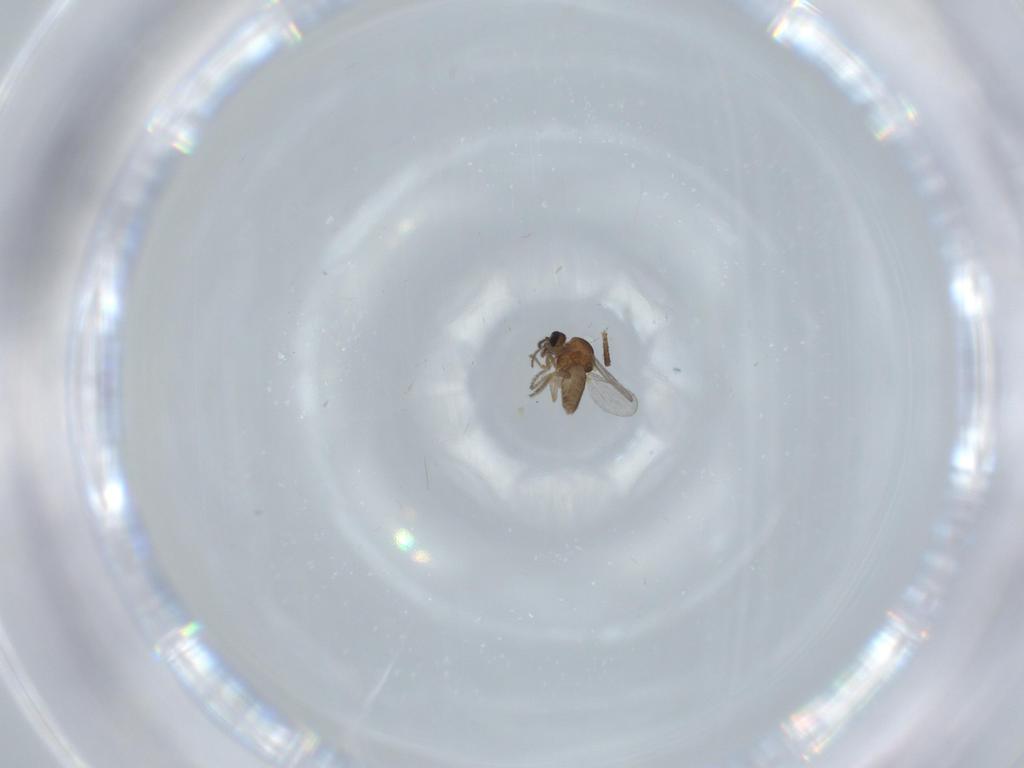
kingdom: Animalia
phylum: Arthropoda
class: Insecta
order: Diptera
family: Ceratopogonidae
